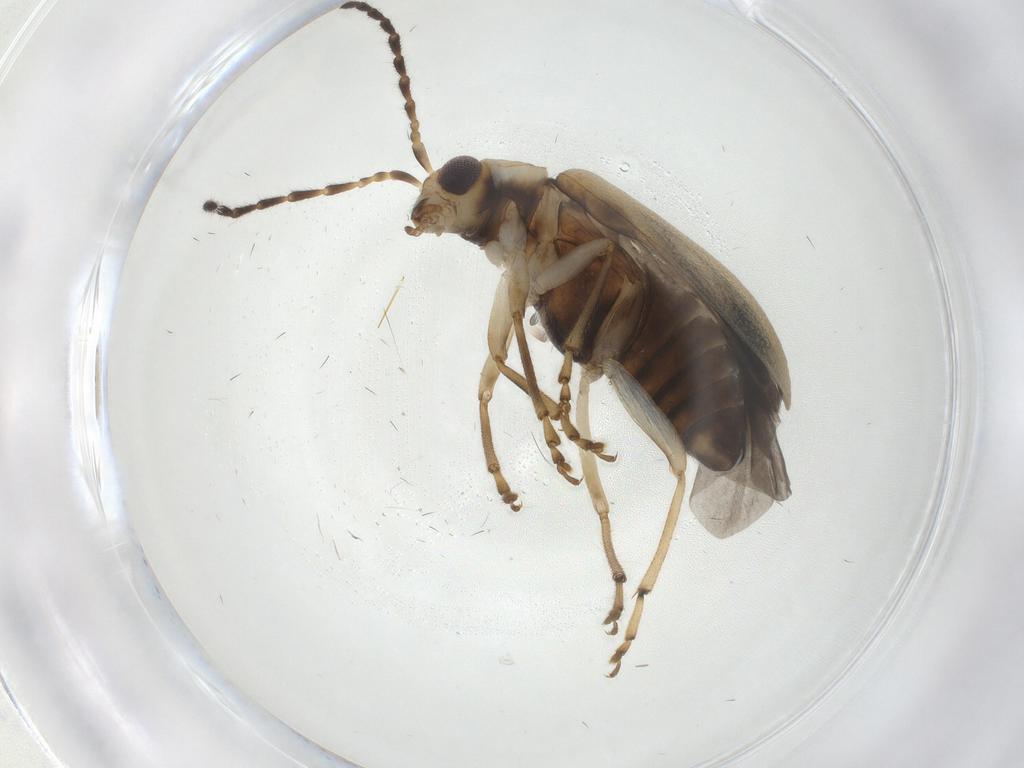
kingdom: Animalia
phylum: Arthropoda
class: Insecta
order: Coleoptera
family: Chrysomelidae
